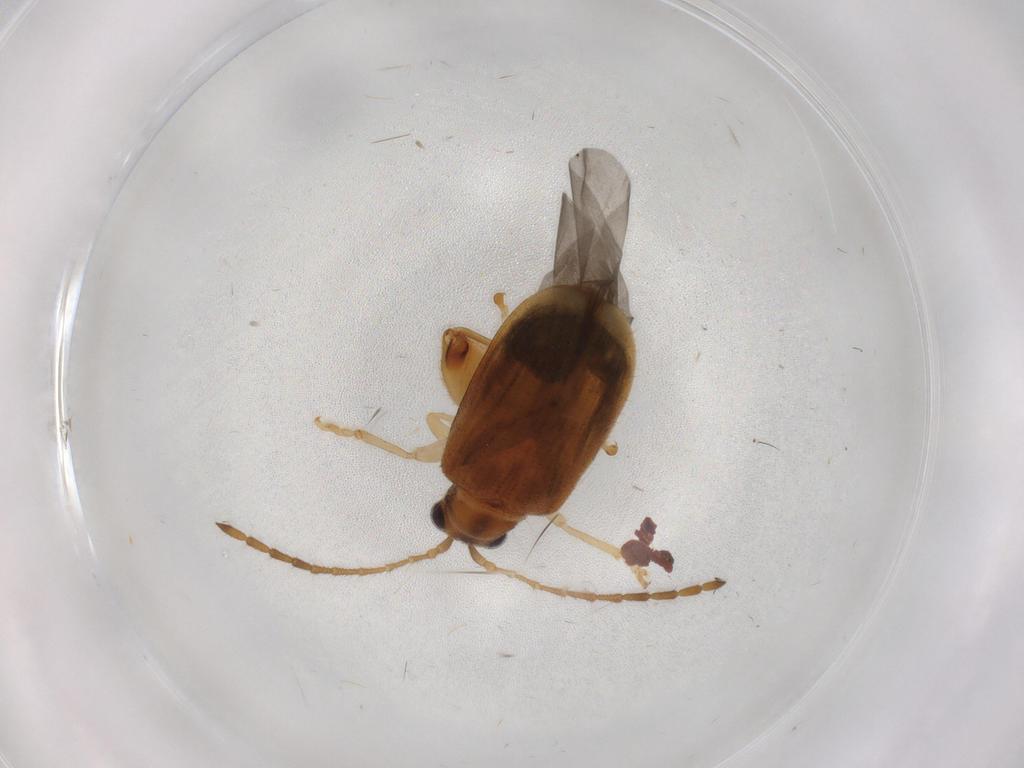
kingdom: Animalia
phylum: Arthropoda
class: Insecta
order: Coleoptera
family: Chrysomelidae
